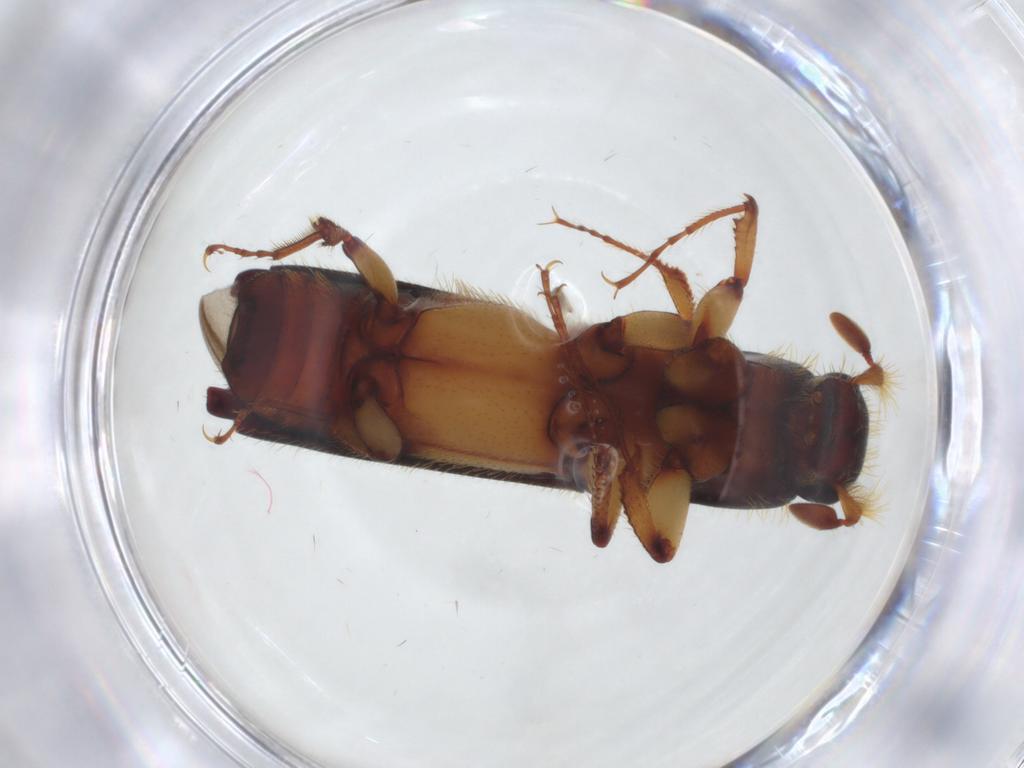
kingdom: Animalia
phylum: Arthropoda
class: Insecta
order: Coleoptera
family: Curculionidae
